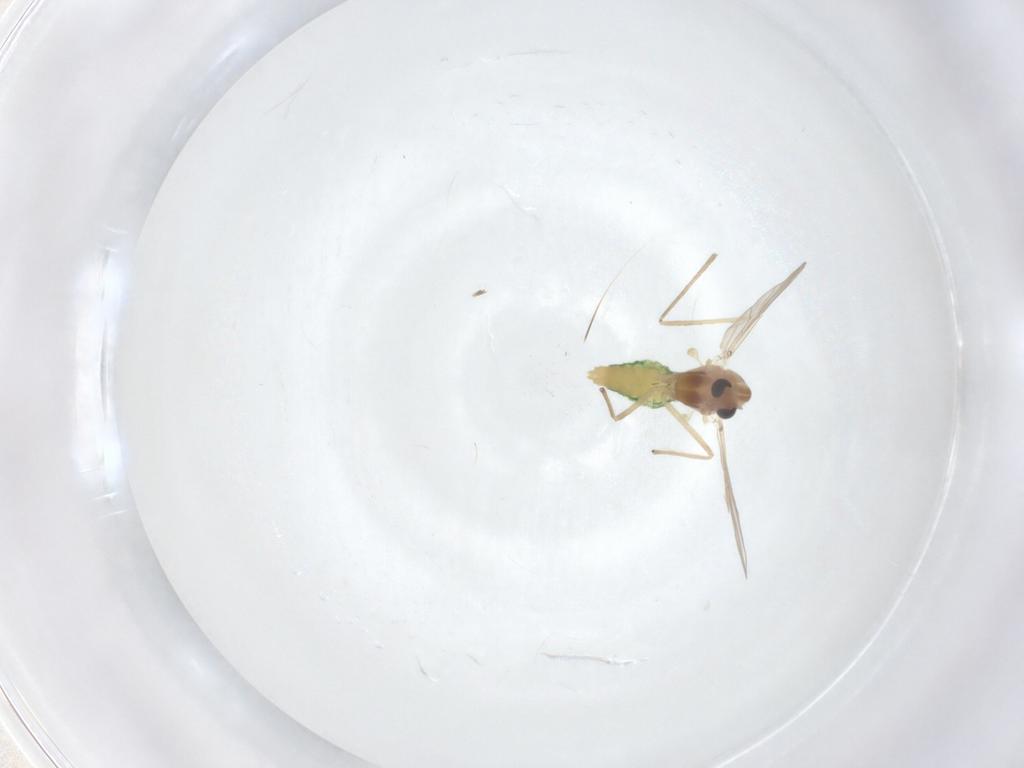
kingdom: Animalia
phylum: Arthropoda
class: Insecta
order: Diptera
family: Chironomidae
